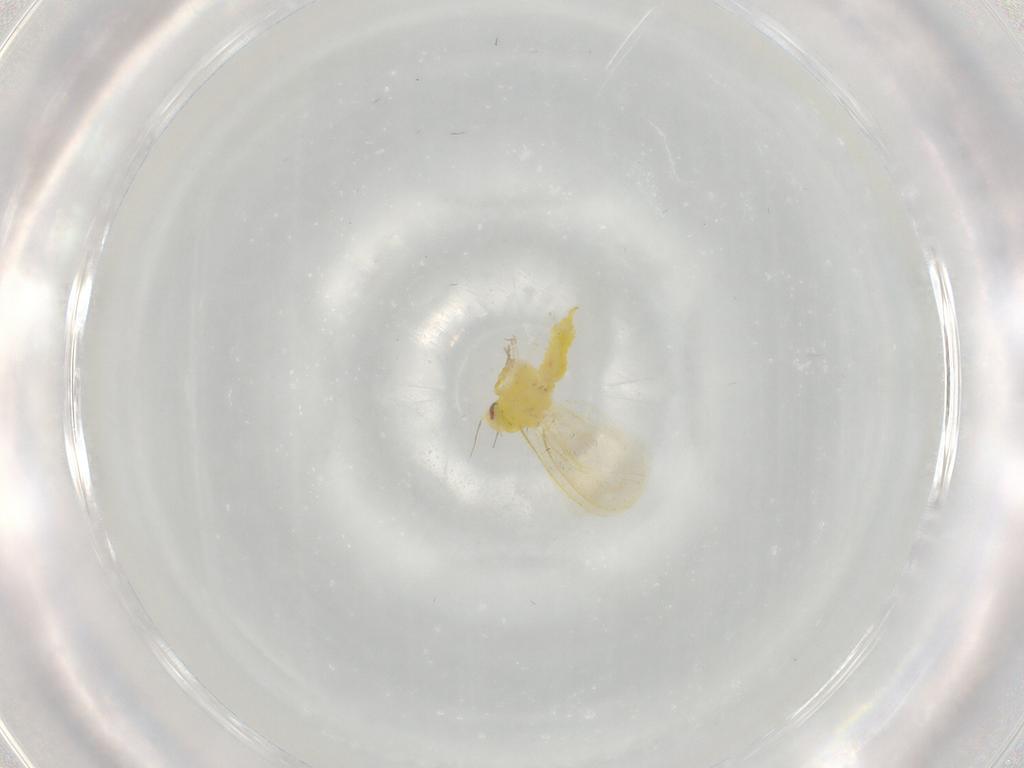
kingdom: Animalia
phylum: Arthropoda
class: Insecta
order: Hemiptera
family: Aleyrodidae
